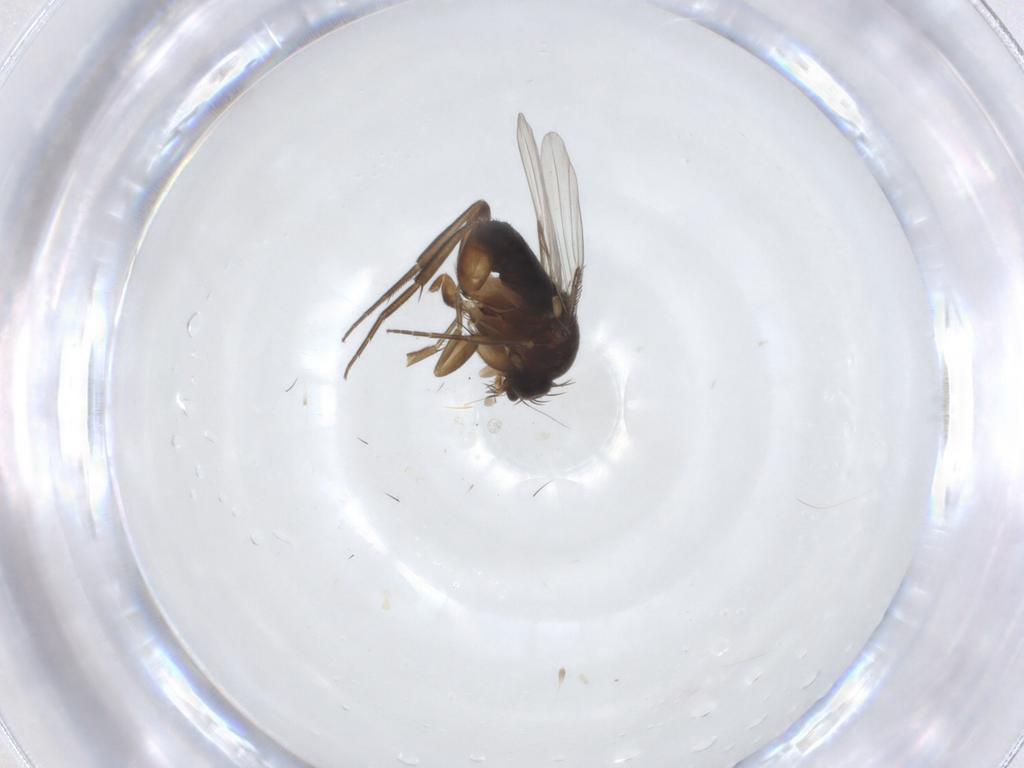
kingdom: Animalia
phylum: Arthropoda
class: Insecta
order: Diptera
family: Phoridae
